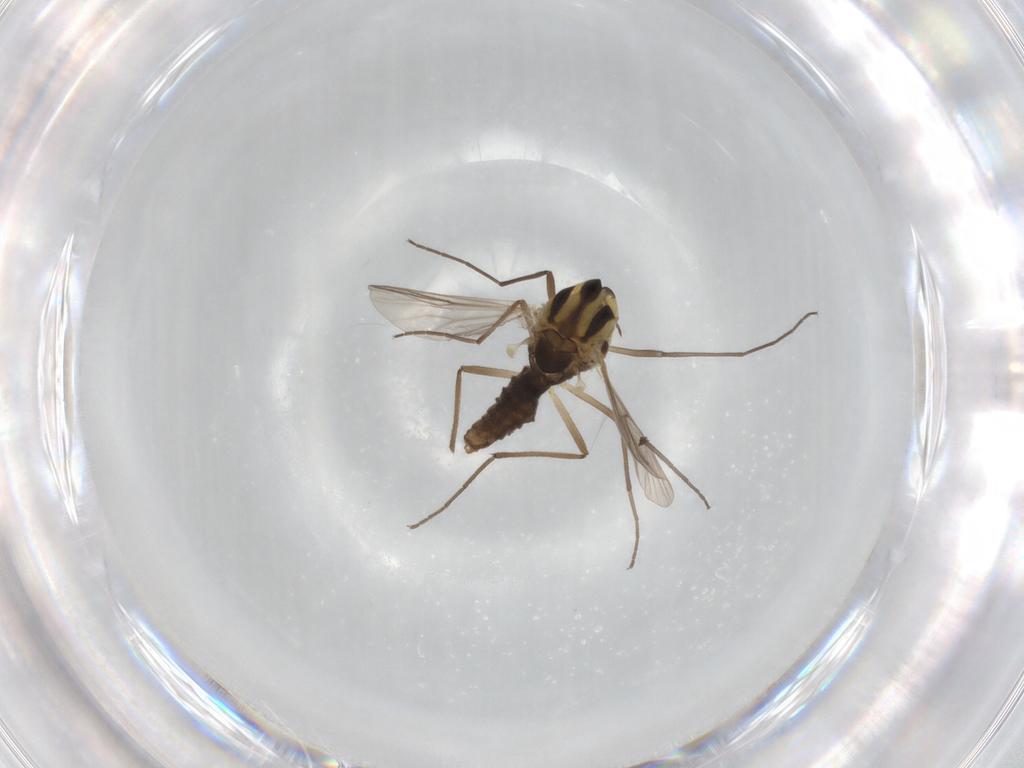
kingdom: Animalia
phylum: Arthropoda
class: Insecta
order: Diptera
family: Chironomidae
